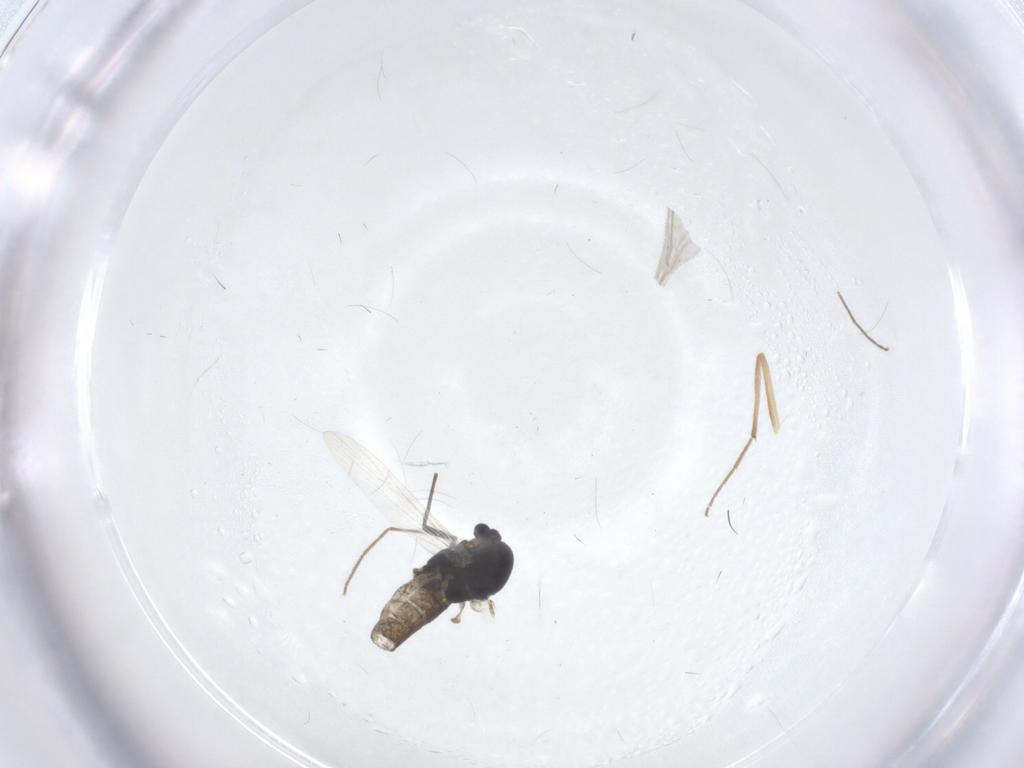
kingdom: Animalia
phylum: Arthropoda
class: Insecta
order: Diptera
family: Chironomidae
